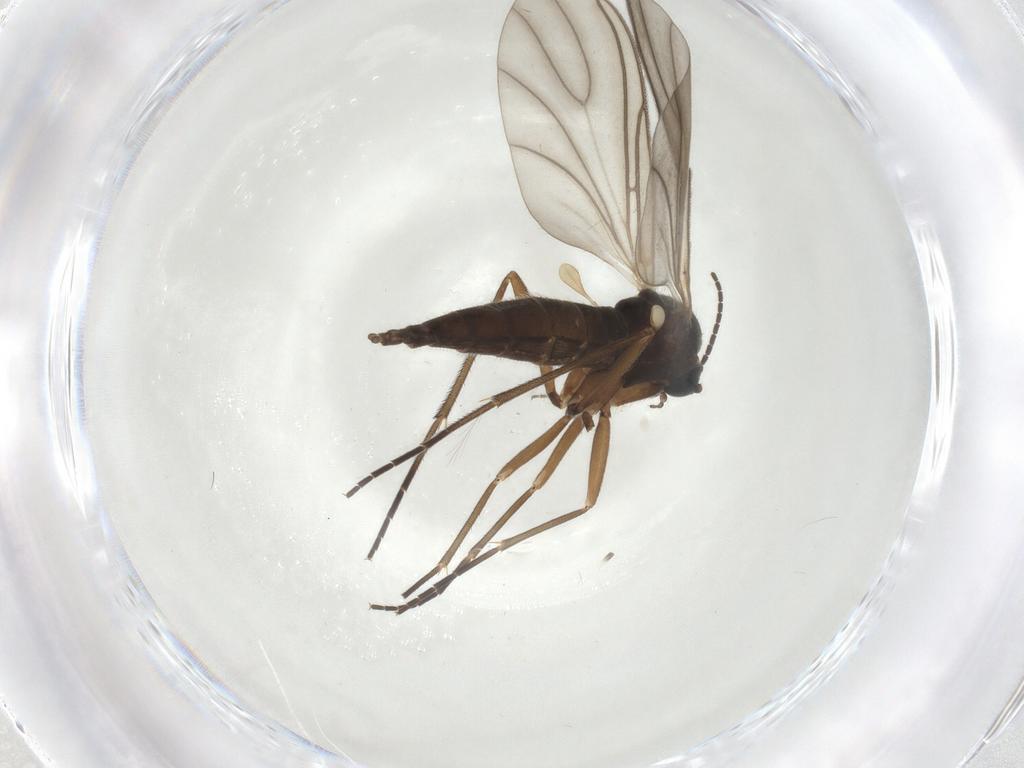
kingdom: Animalia
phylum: Arthropoda
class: Insecta
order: Diptera
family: Sciaridae
